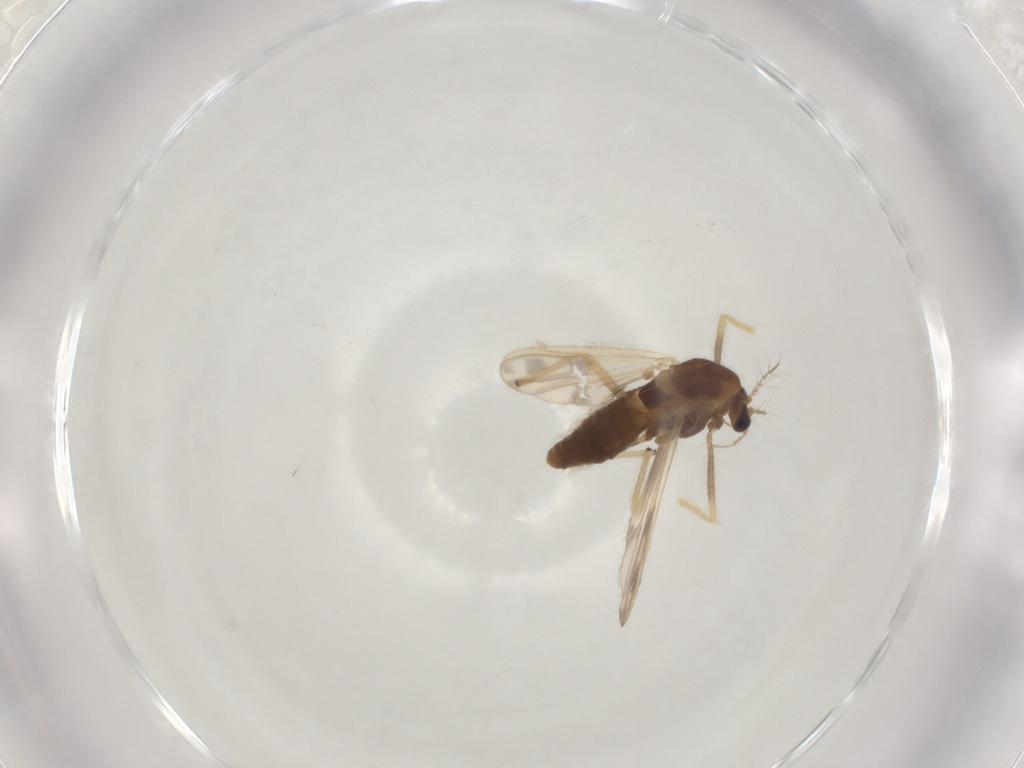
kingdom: Animalia
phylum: Arthropoda
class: Insecta
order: Diptera
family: Chironomidae
